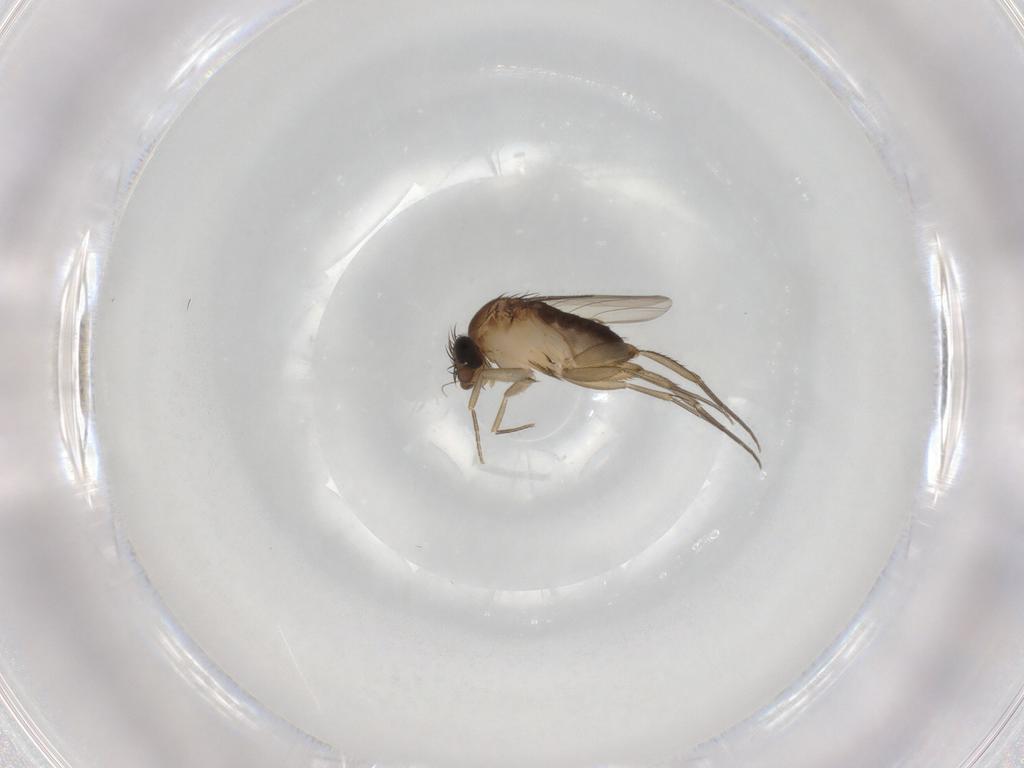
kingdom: Animalia
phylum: Arthropoda
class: Insecta
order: Diptera
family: Phoridae
